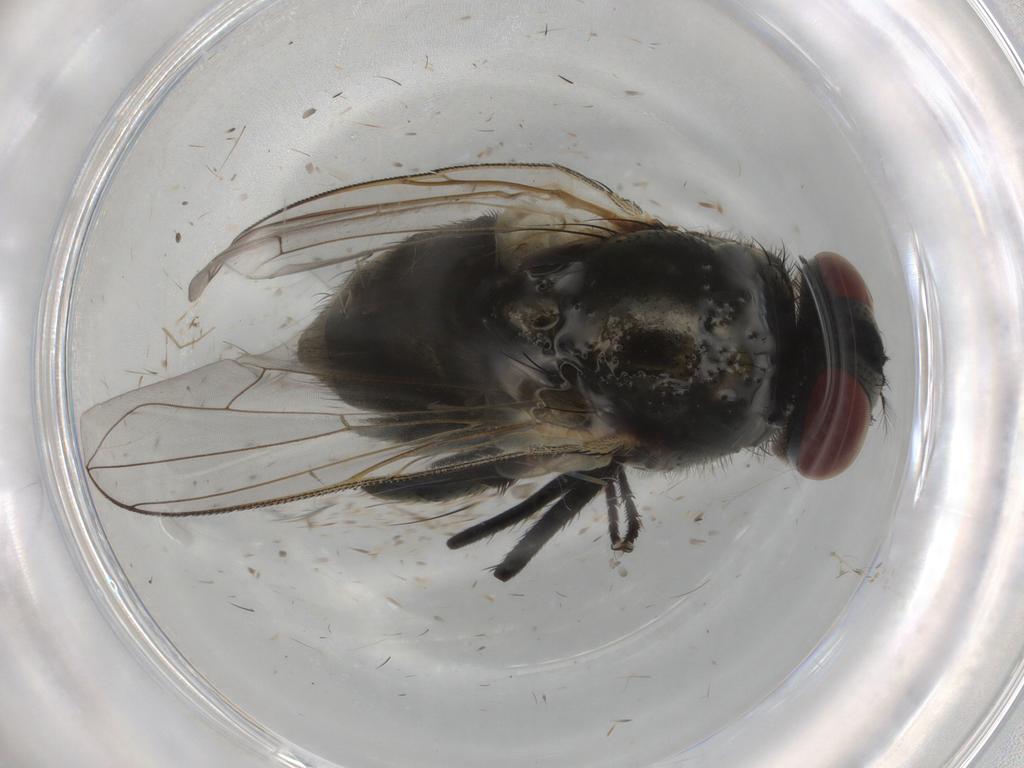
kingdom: Animalia
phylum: Arthropoda
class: Insecta
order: Diptera
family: Muscidae
